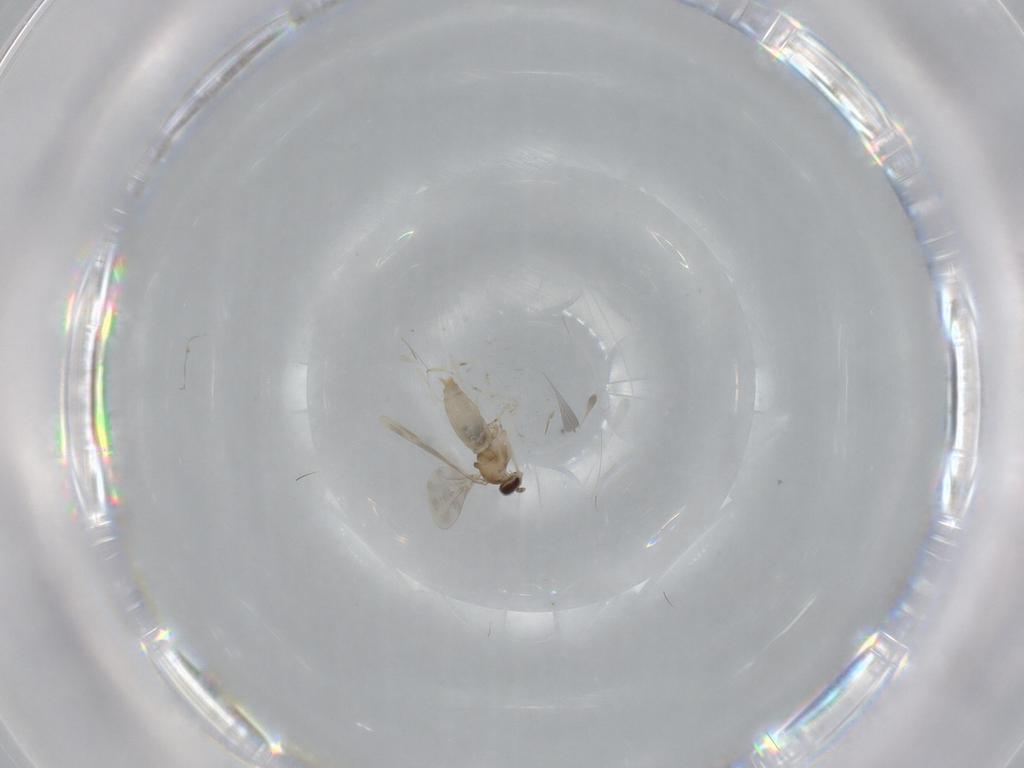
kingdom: Animalia
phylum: Arthropoda
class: Insecta
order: Diptera
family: Cecidomyiidae
